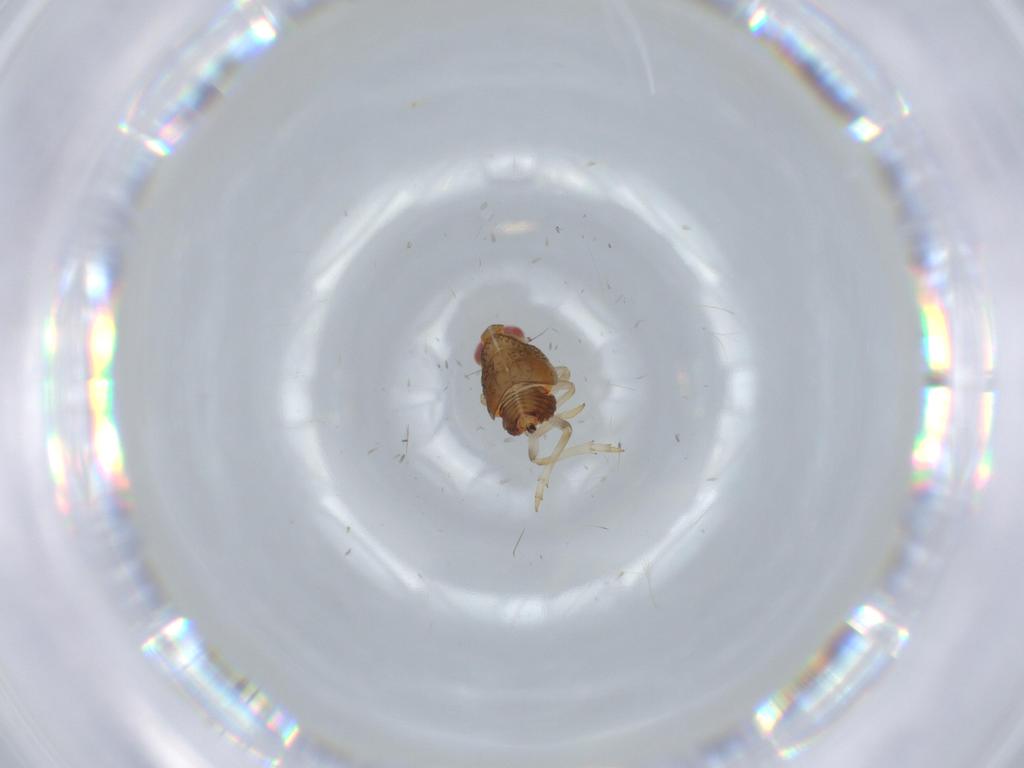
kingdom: Animalia
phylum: Arthropoda
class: Insecta
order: Hemiptera
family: Issidae
